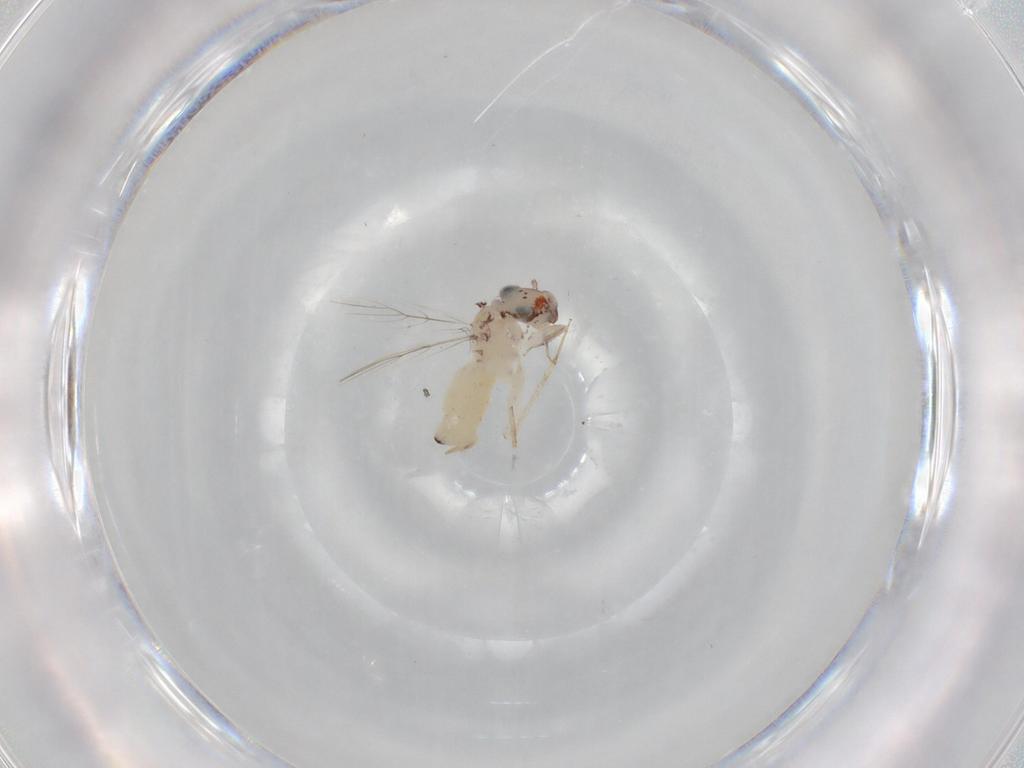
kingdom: Animalia
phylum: Arthropoda
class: Insecta
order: Psocodea
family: Lepidopsocidae
